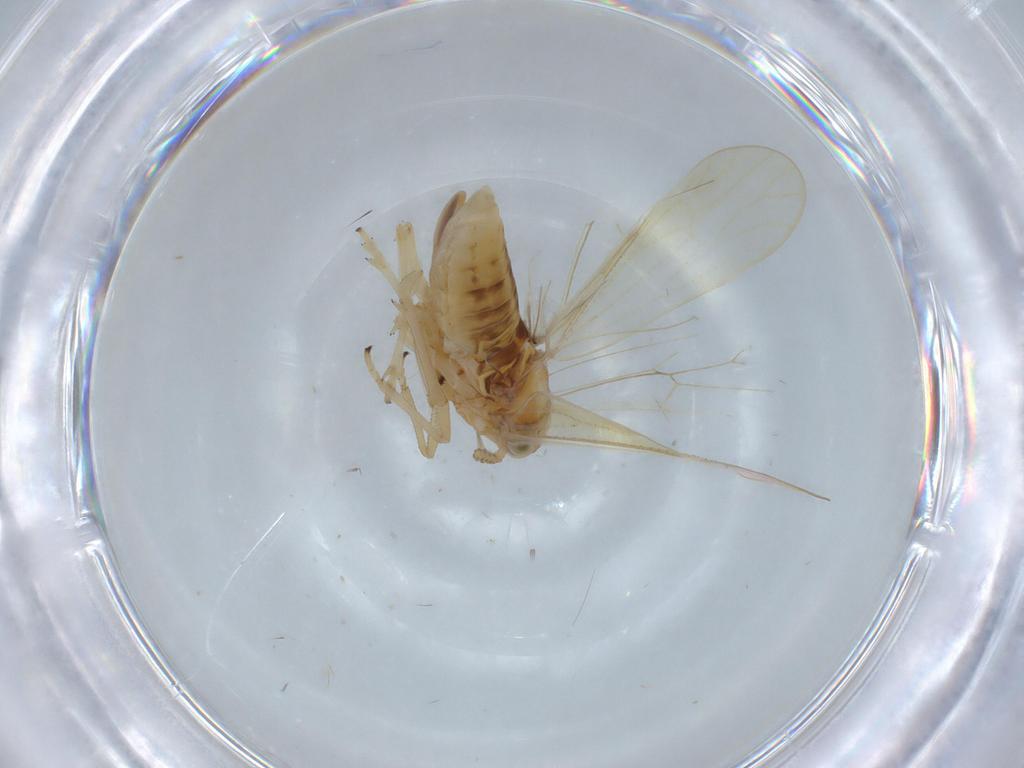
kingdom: Animalia
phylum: Arthropoda
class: Insecta
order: Hemiptera
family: Delphacidae
